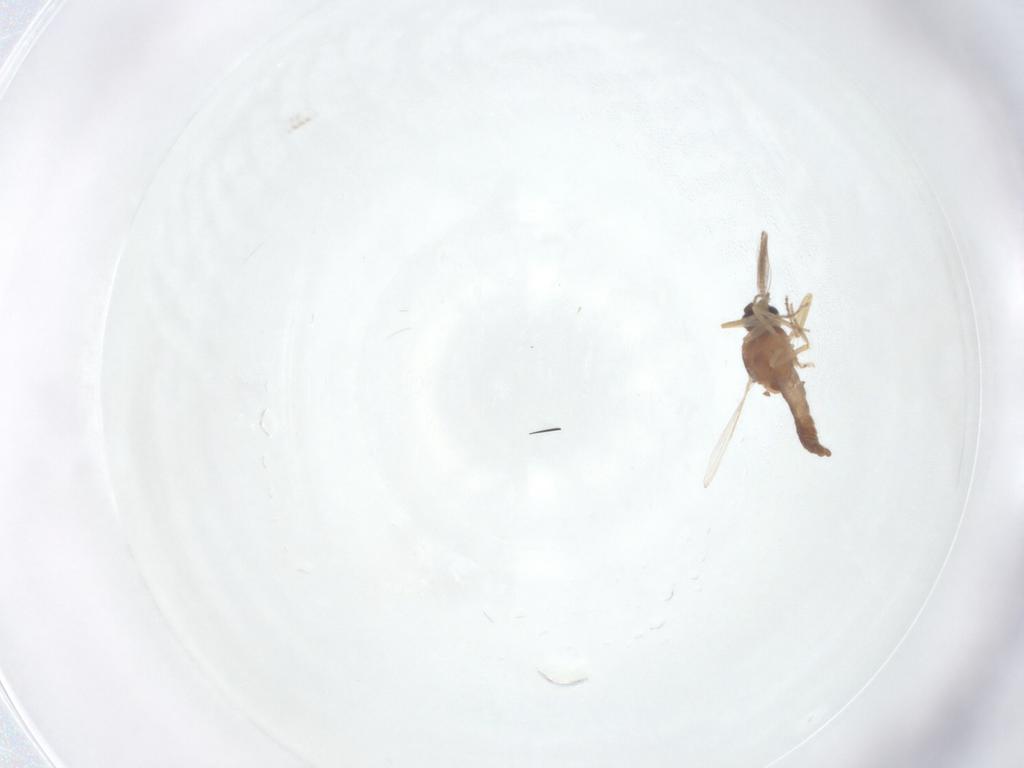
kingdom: Animalia
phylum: Arthropoda
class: Insecta
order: Diptera
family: Ceratopogonidae
